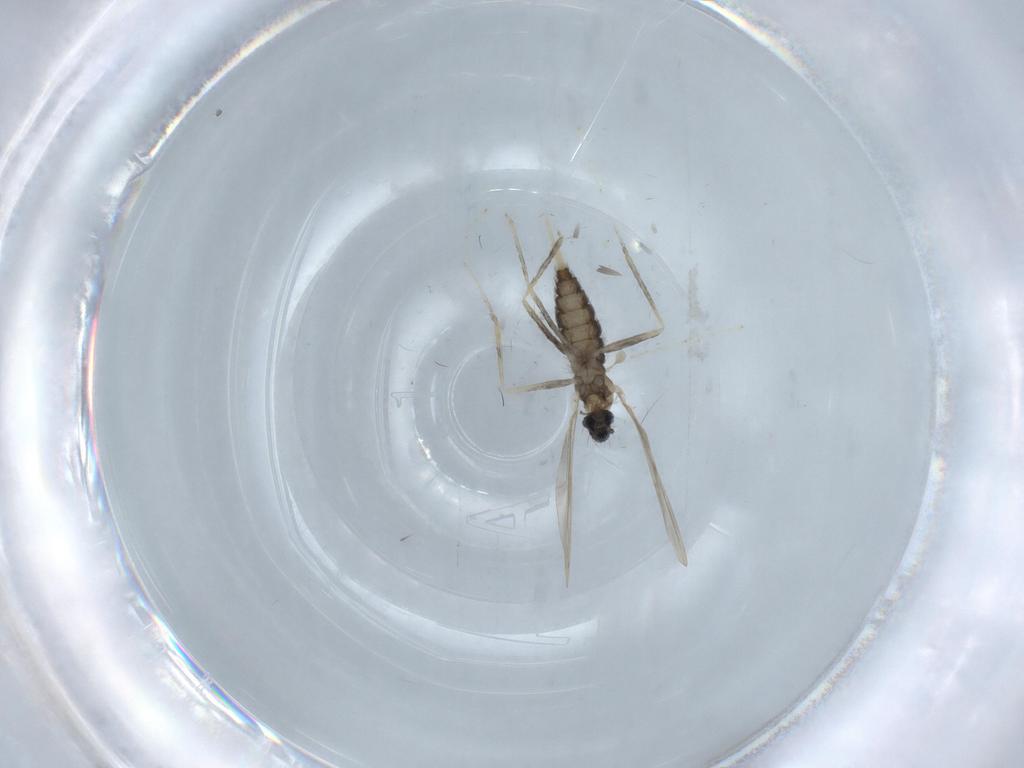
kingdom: Animalia
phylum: Arthropoda
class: Insecta
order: Diptera
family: Cecidomyiidae
